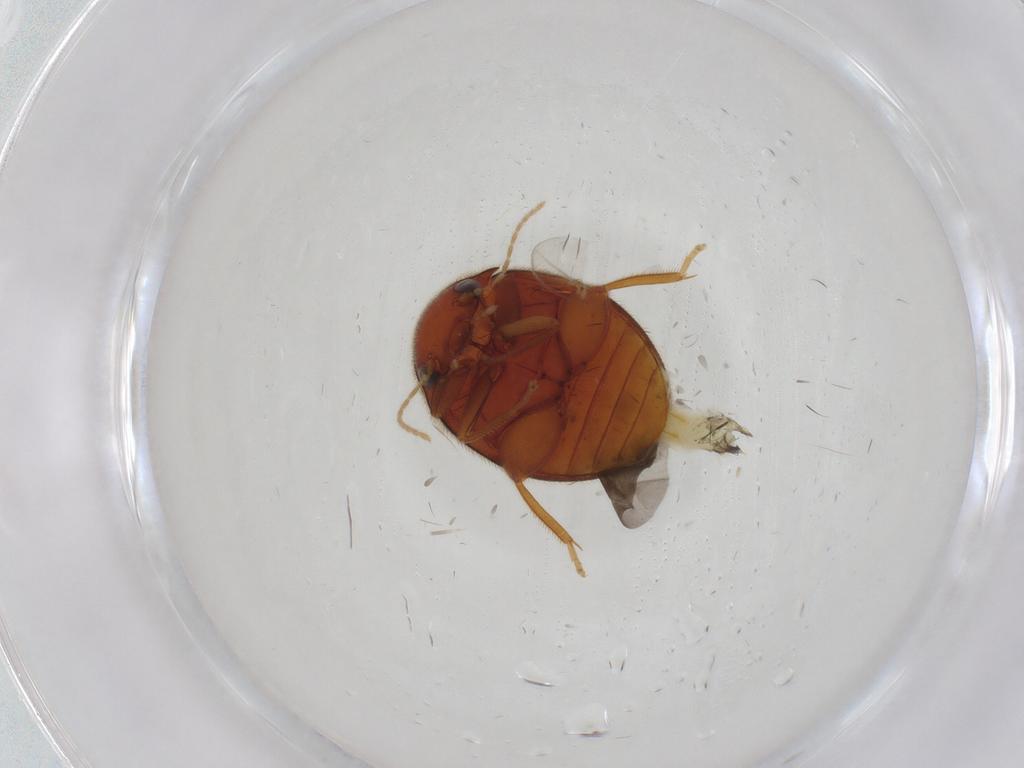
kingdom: Animalia
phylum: Arthropoda
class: Insecta
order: Coleoptera
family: Scirtidae
